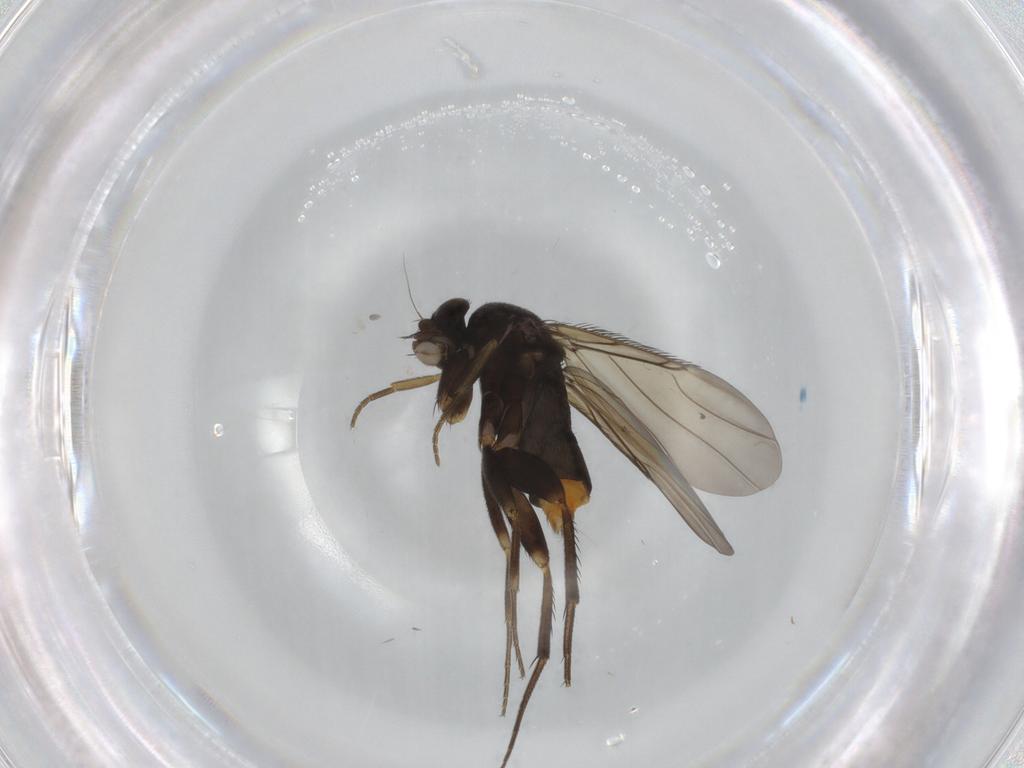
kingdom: Animalia
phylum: Arthropoda
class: Insecta
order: Diptera
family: Phoridae
